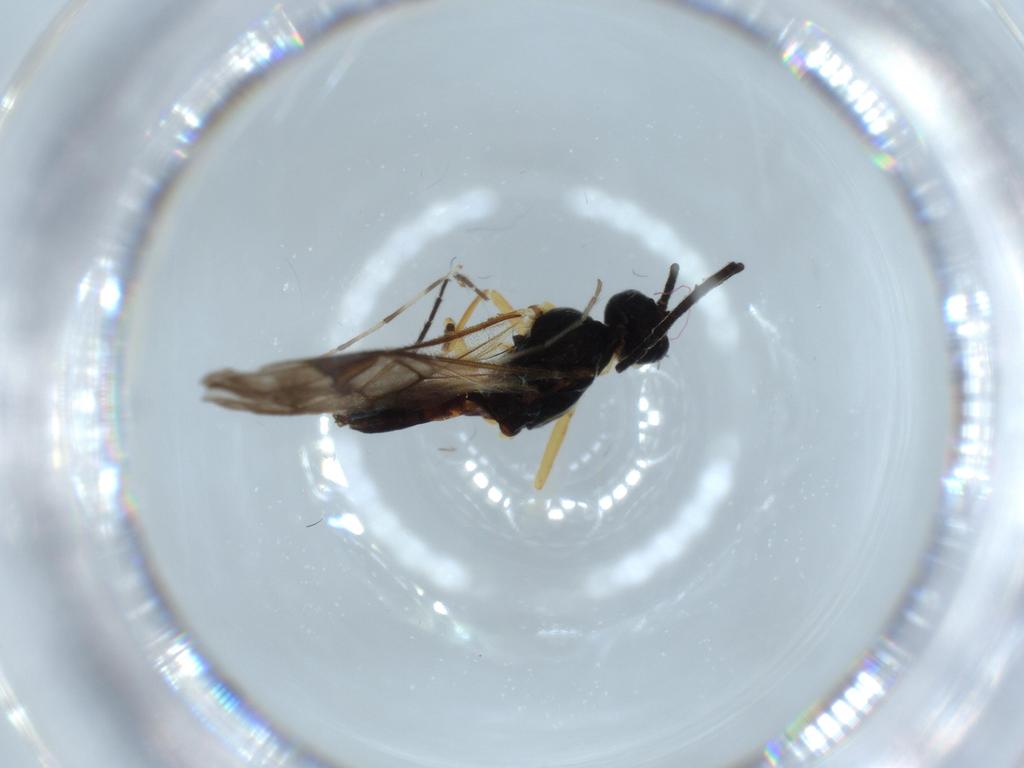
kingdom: Animalia
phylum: Arthropoda
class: Insecta
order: Hymenoptera
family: Braconidae
